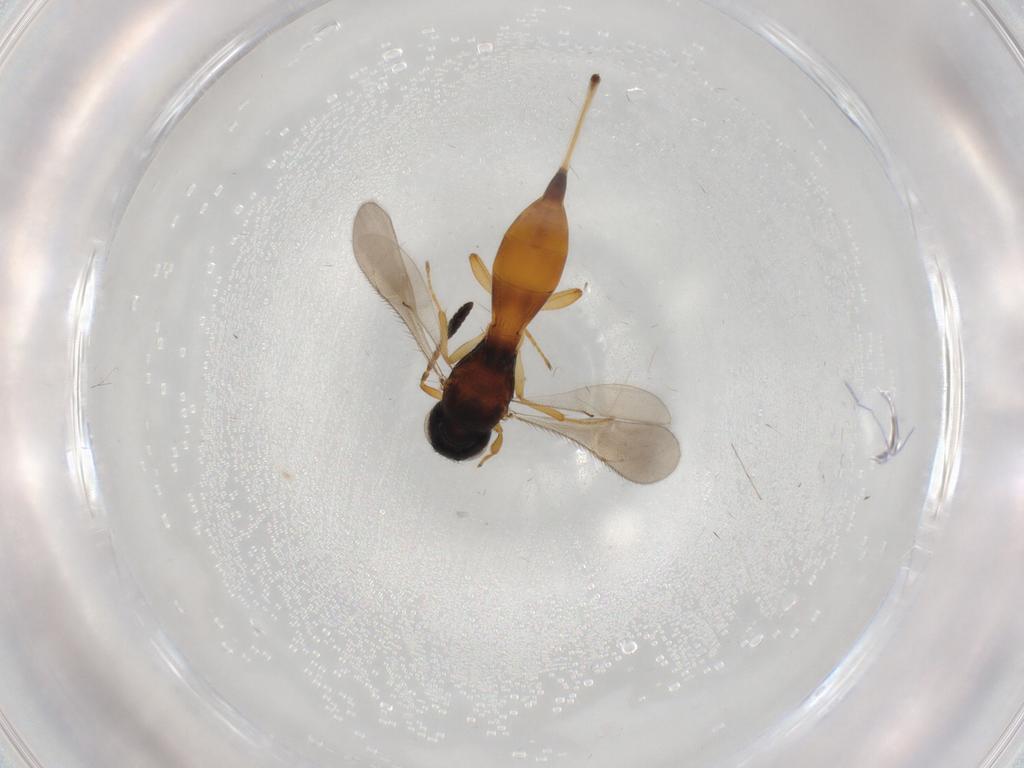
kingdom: Animalia
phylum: Arthropoda
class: Insecta
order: Hymenoptera
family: Scelionidae
